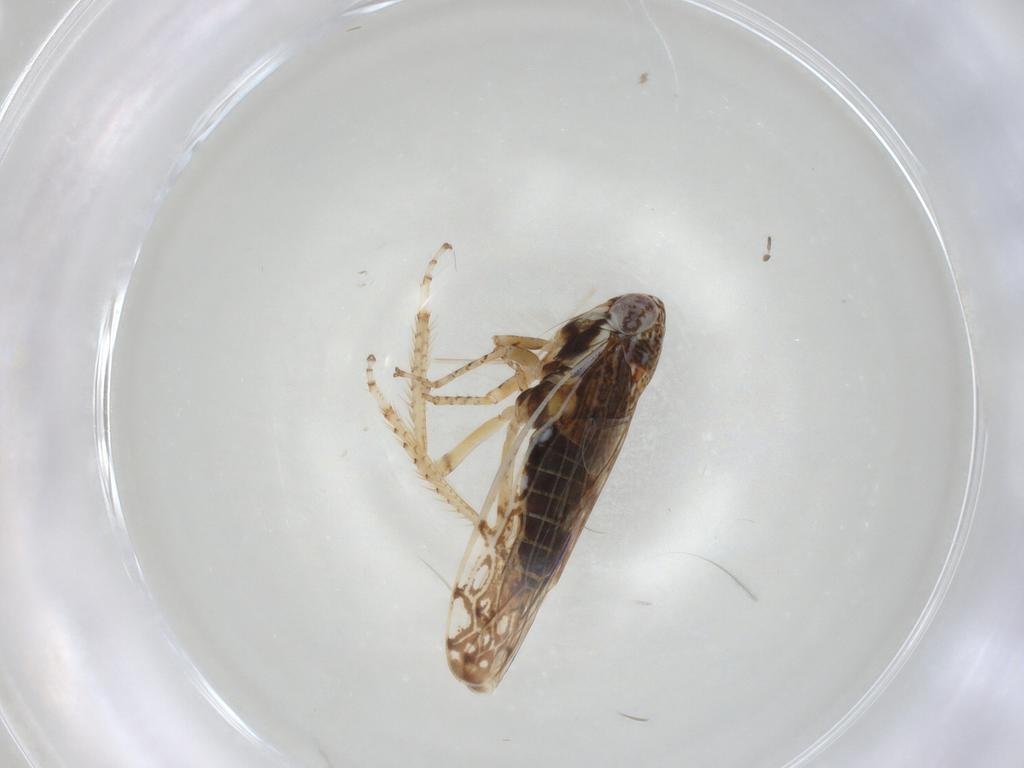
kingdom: Animalia
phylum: Arthropoda
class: Insecta
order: Hemiptera
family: Cicadellidae
